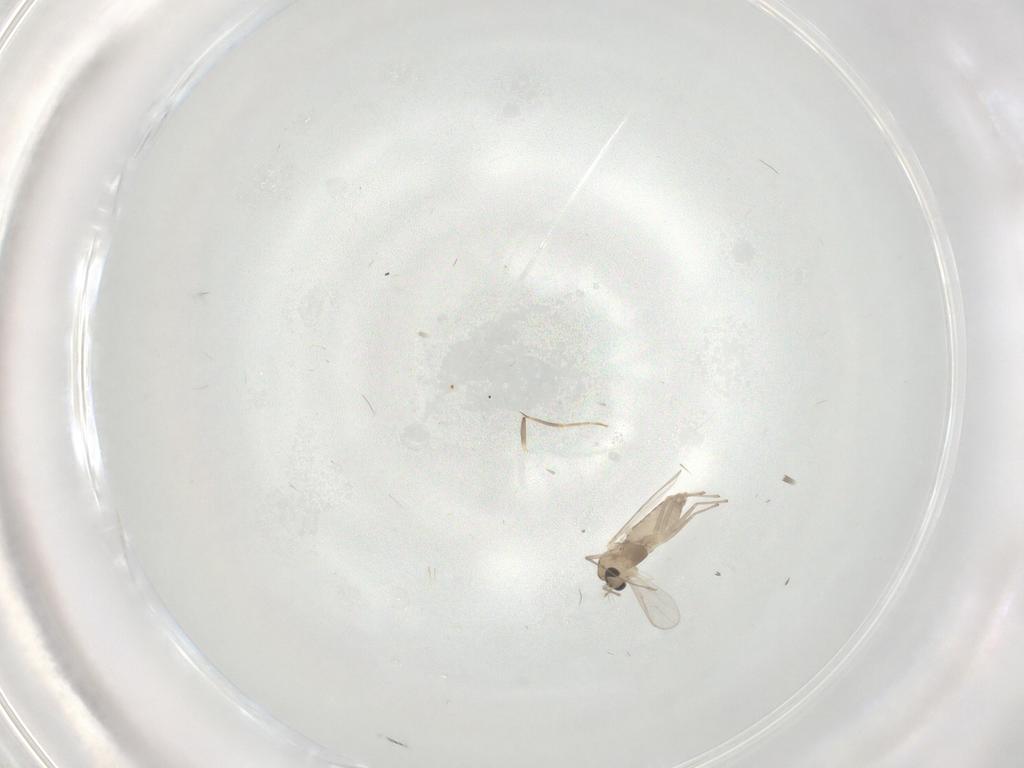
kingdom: Animalia
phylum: Arthropoda
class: Insecta
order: Diptera
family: Chironomidae
